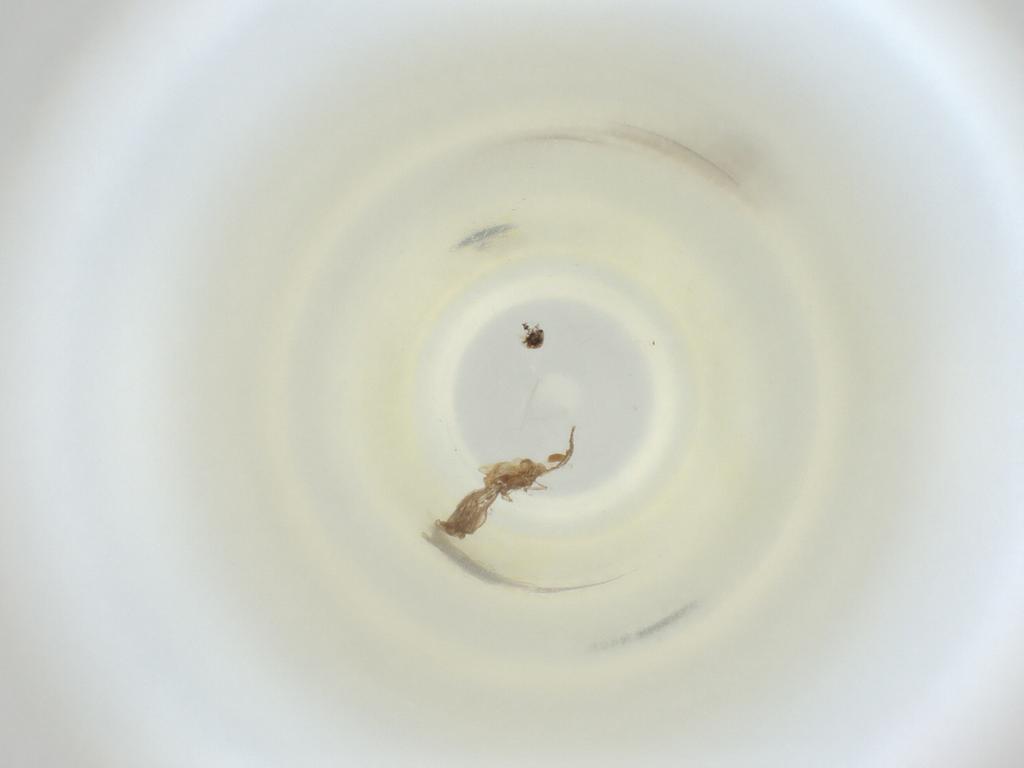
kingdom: Animalia
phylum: Arthropoda
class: Insecta
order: Diptera
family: Cecidomyiidae
